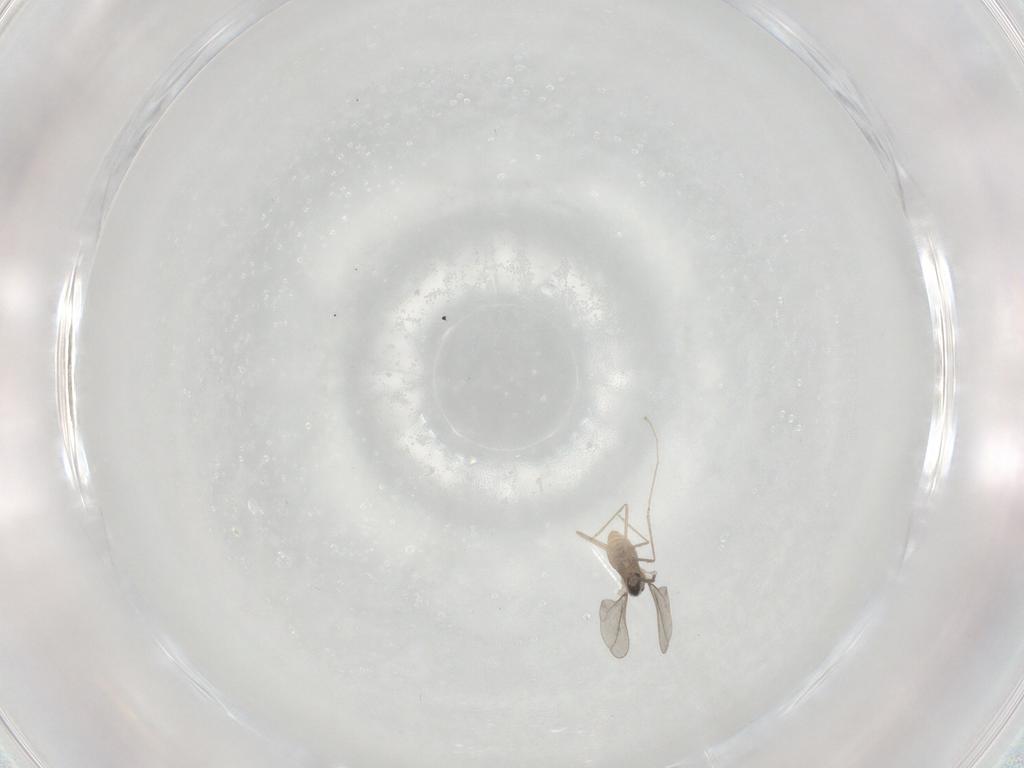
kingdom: Animalia
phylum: Arthropoda
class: Insecta
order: Diptera
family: Cecidomyiidae
